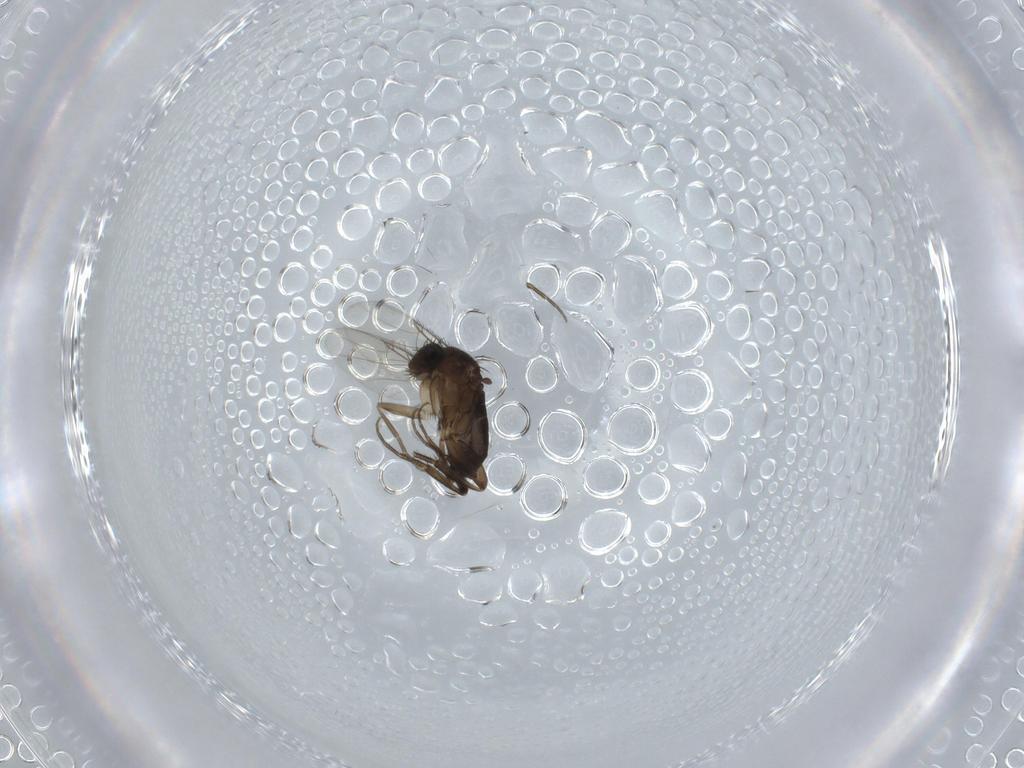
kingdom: Animalia
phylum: Arthropoda
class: Insecta
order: Diptera
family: Phoridae
